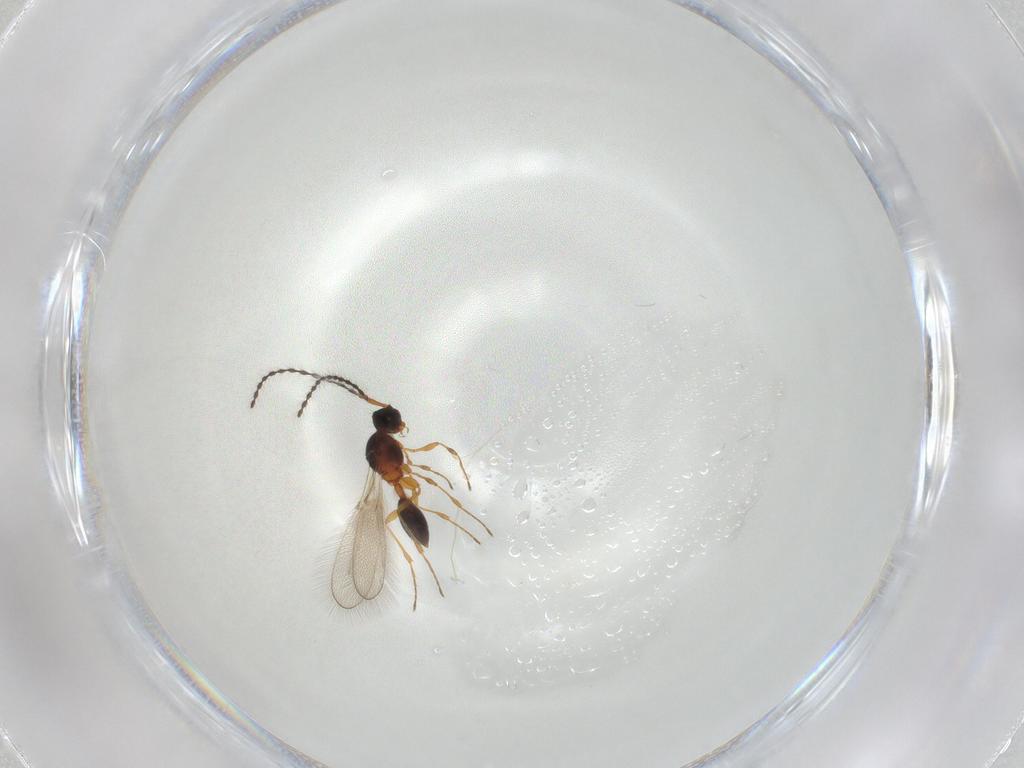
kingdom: Animalia
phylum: Arthropoda
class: Insecta
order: Hymenoptera
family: Diapriidae
